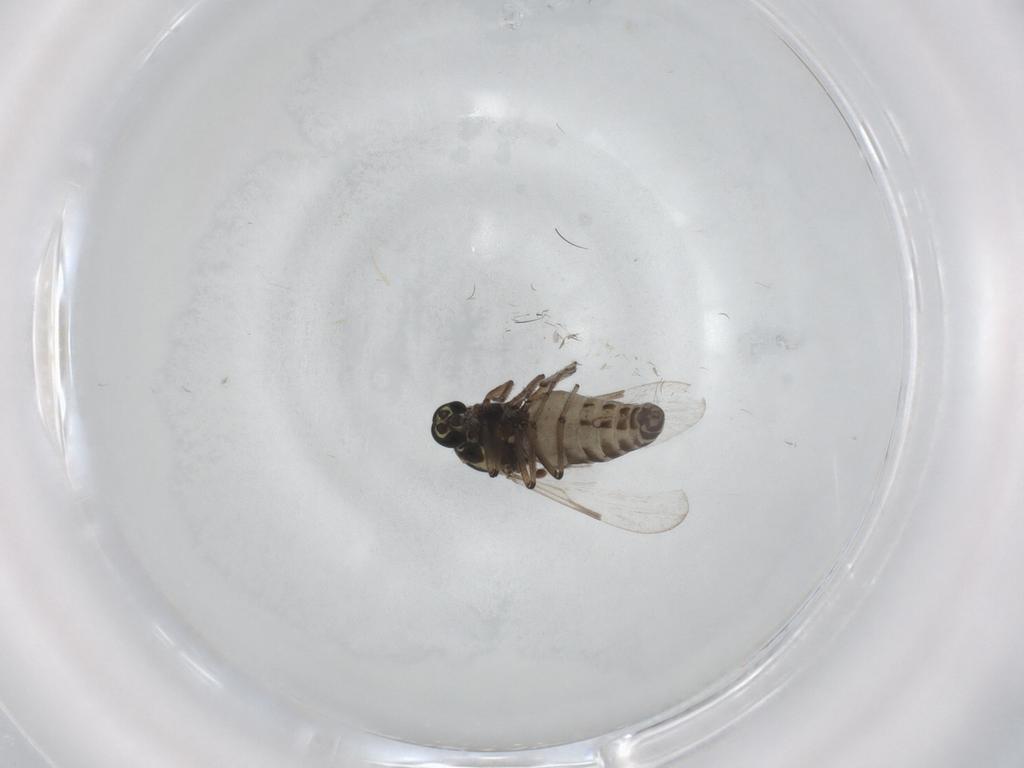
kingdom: Animalia
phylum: Arthropoda
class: Insecta
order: Diptera
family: Ceratopogonidae
